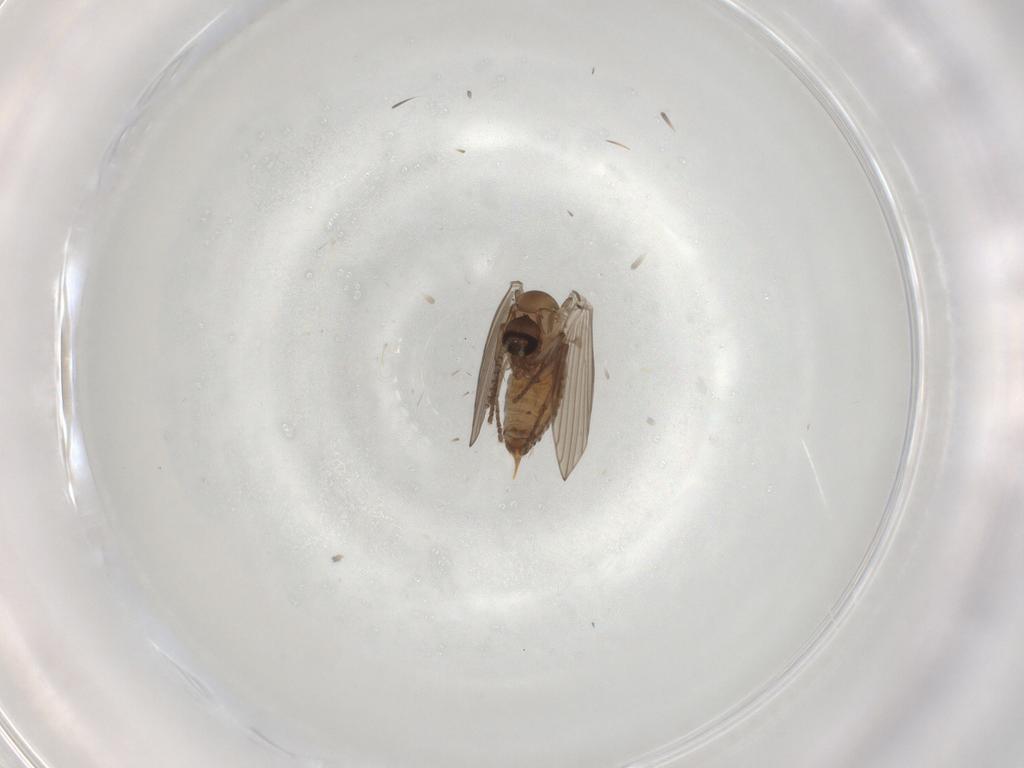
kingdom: Animalia
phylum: Arthropoda
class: Insecta
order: Diptera
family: Psychodidae
